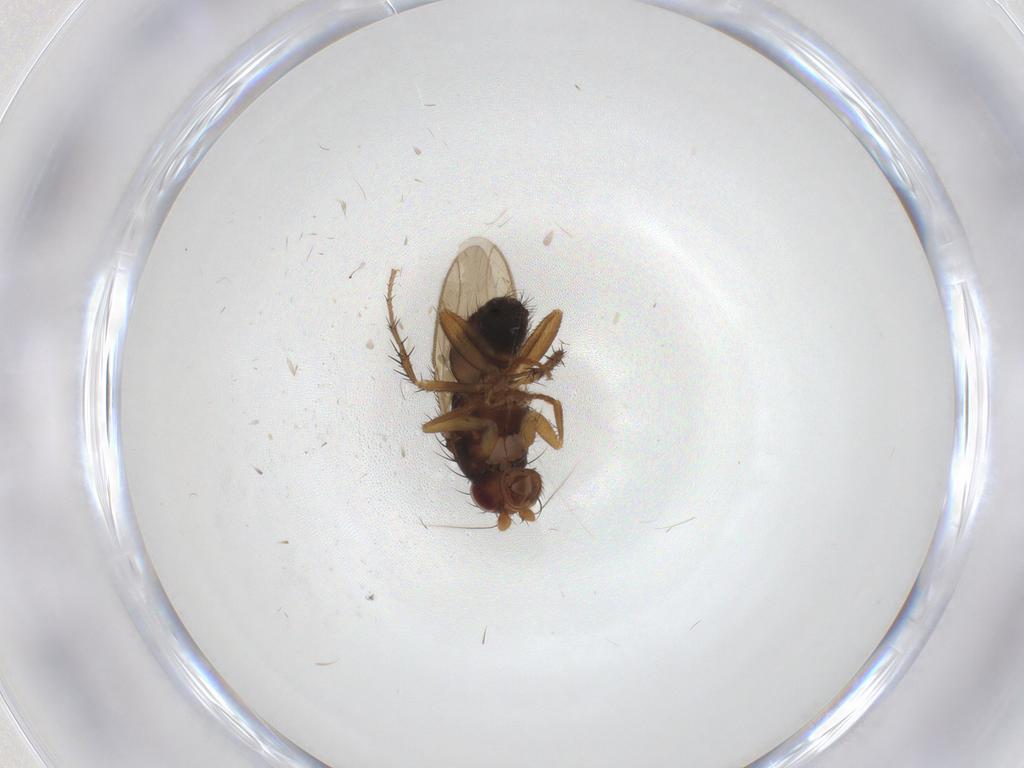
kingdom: Animalia
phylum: Arthropoda
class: Insecta
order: Diptera
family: Sphaeroceridae
